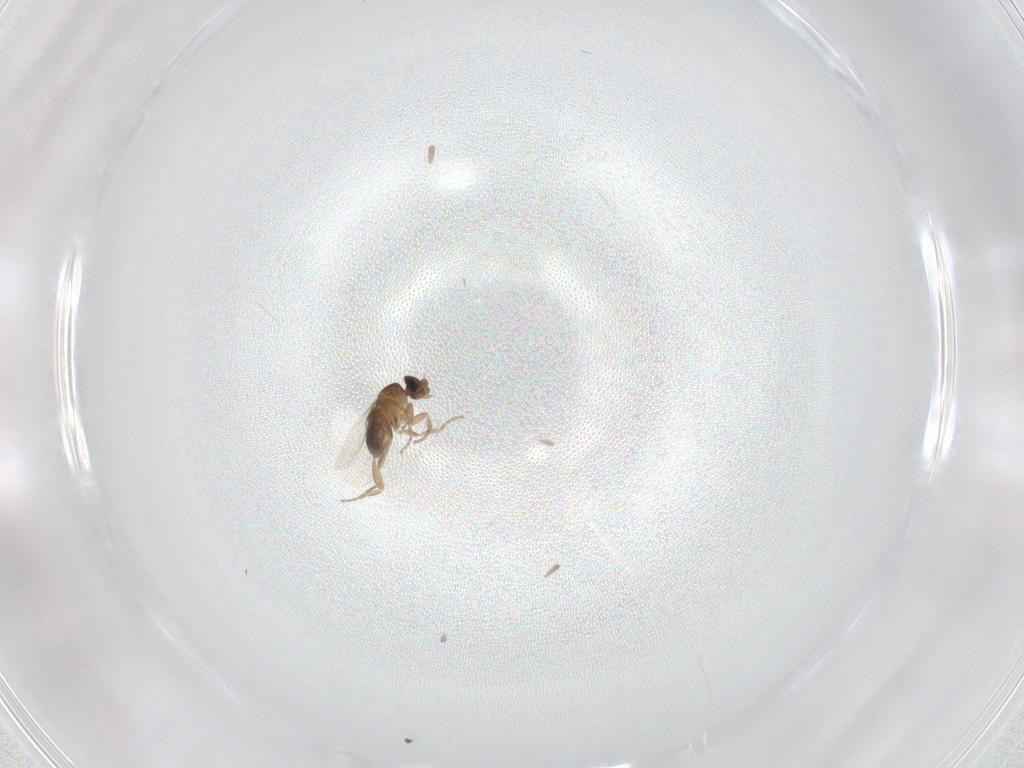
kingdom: Animalia
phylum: Arthropoda
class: Insecta
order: Diptera
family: Phoridae
